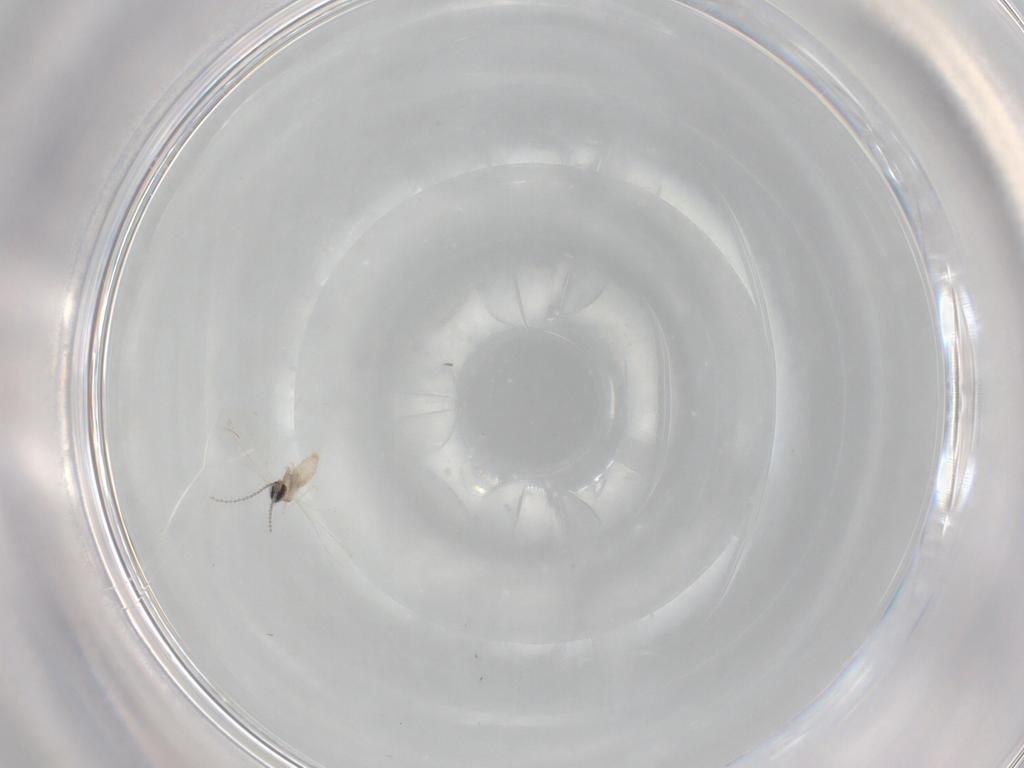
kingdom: Animalia
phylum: Arthropoda
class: Insecta
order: Diptera
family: Cecidomyiidae
